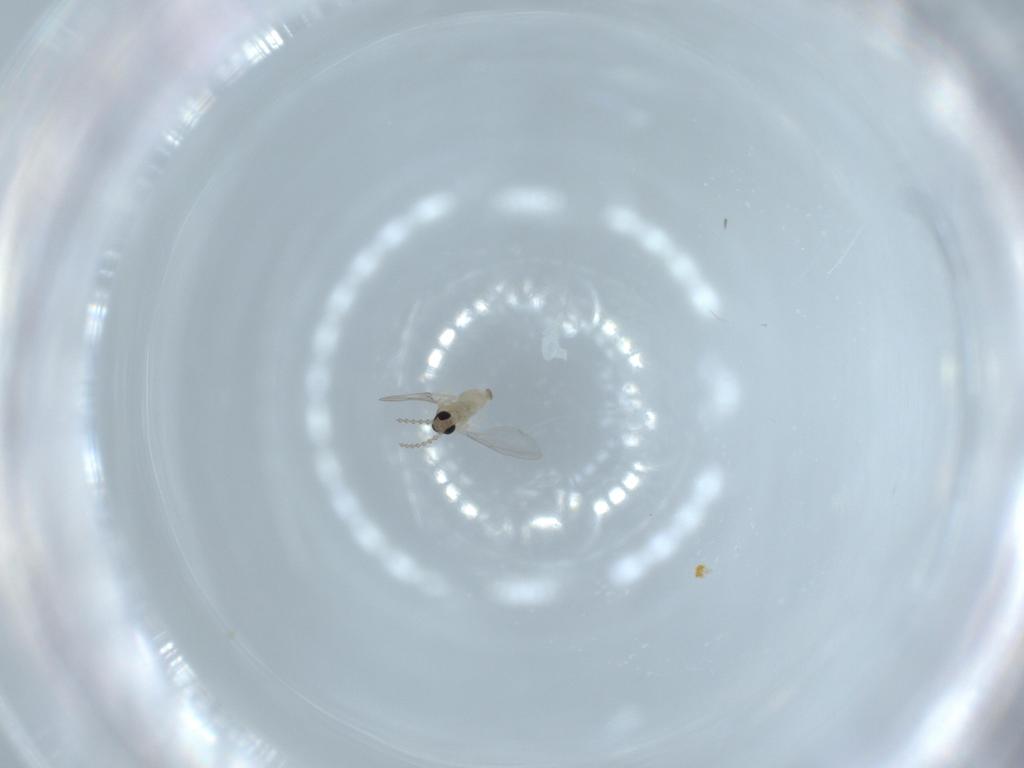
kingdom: Animalia
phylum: Arthropoda
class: Insecta
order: Diptera
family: Cecidomyiidae
